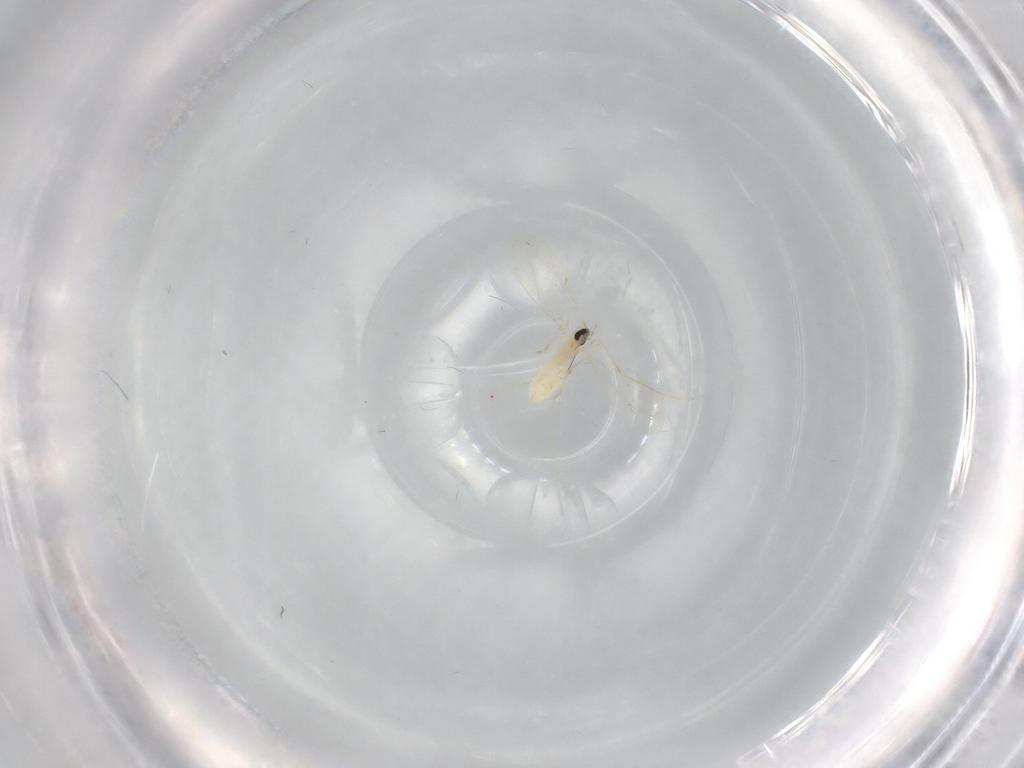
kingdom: Animalia
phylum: Arthropoda
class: Insecta
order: Diptera
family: Cecidomyiidae
